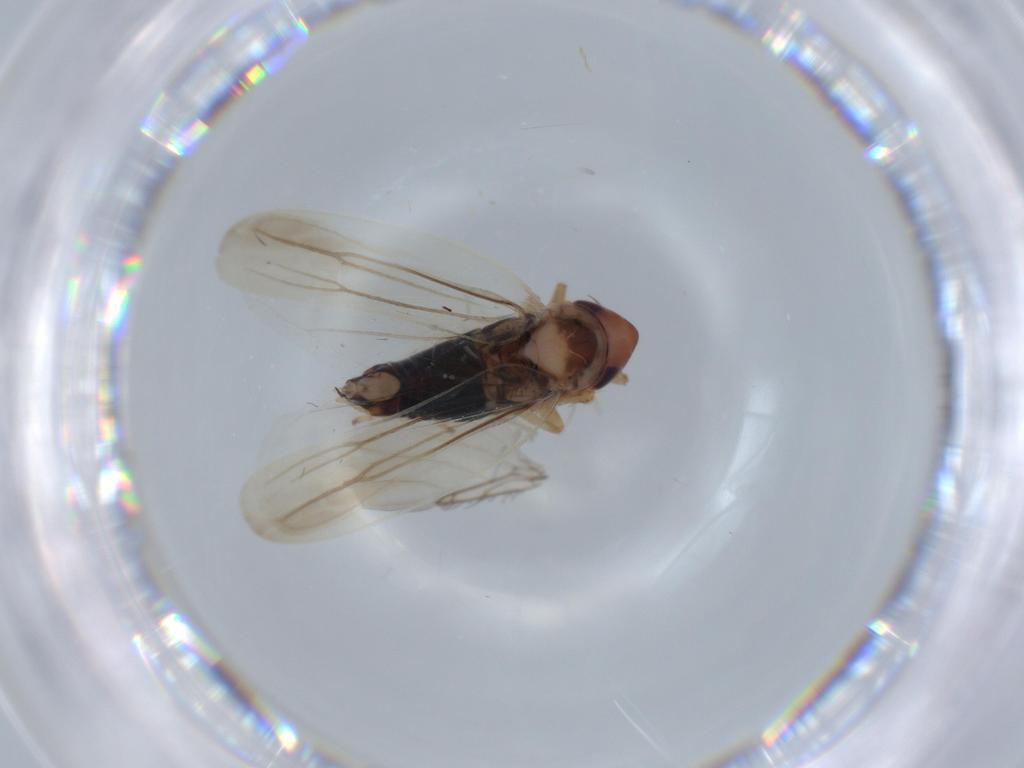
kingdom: Animalia
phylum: Arthropoda
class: Insecta
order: Hemiptera
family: Cicadellidae
